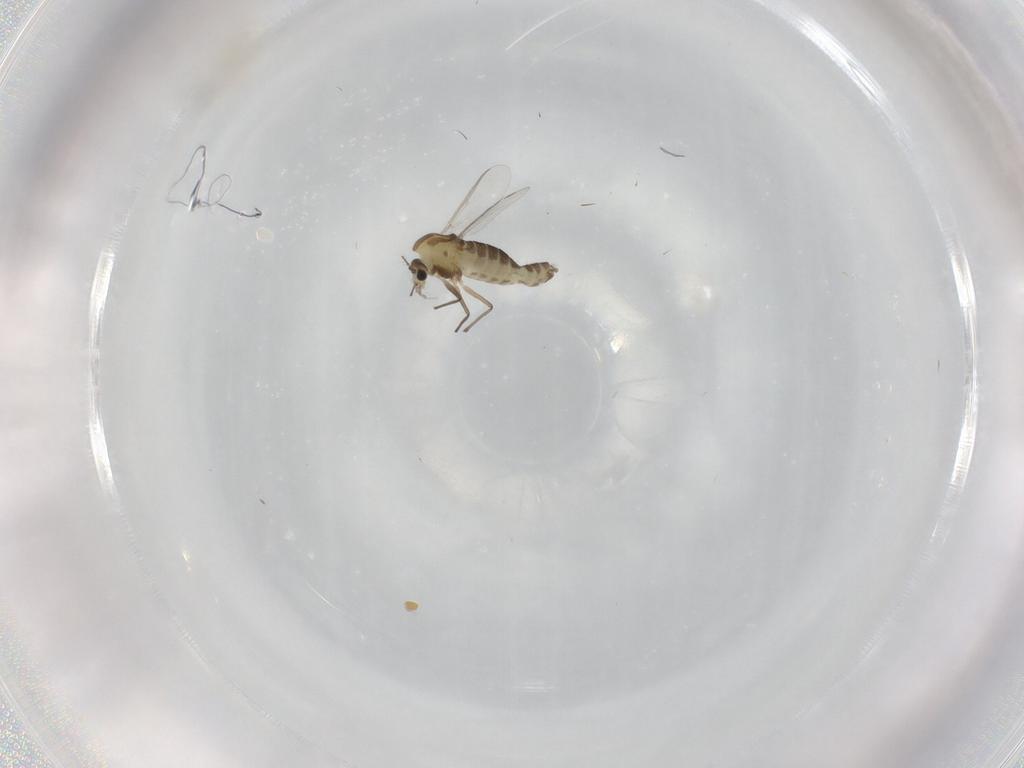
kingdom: Animalia
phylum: Arthropoda
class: Insecta
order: Diptera
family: Chironomidae
